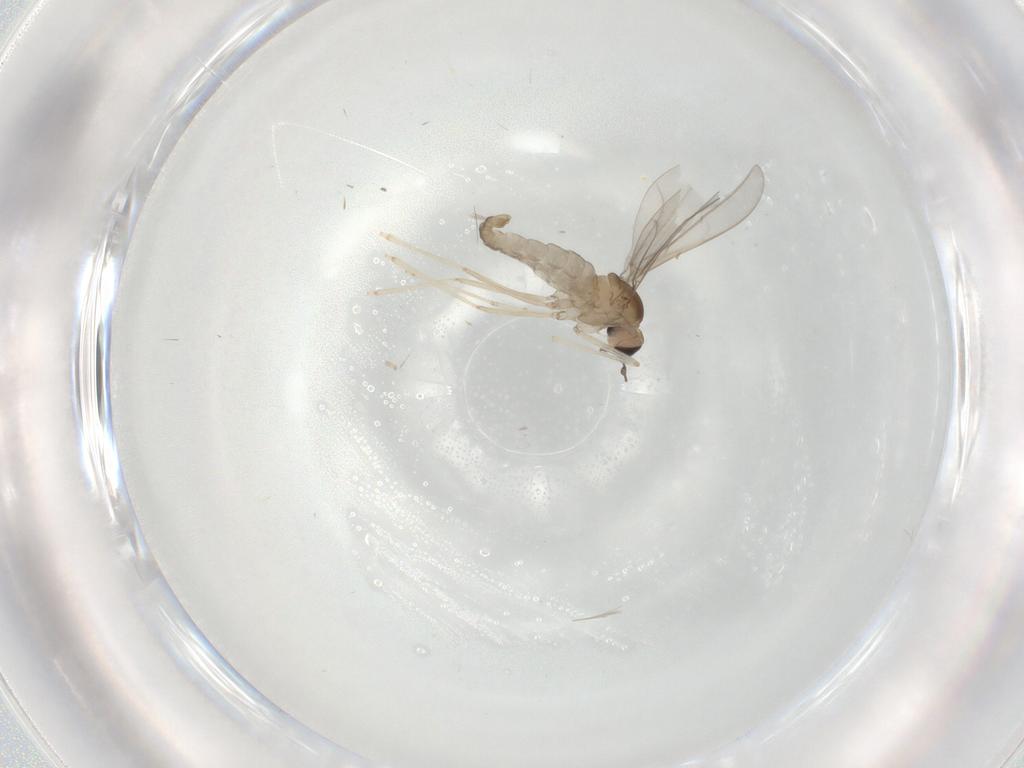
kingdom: Animalia
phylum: Arthropoda
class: Insecta
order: Diptera
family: Cecidomyiidae
